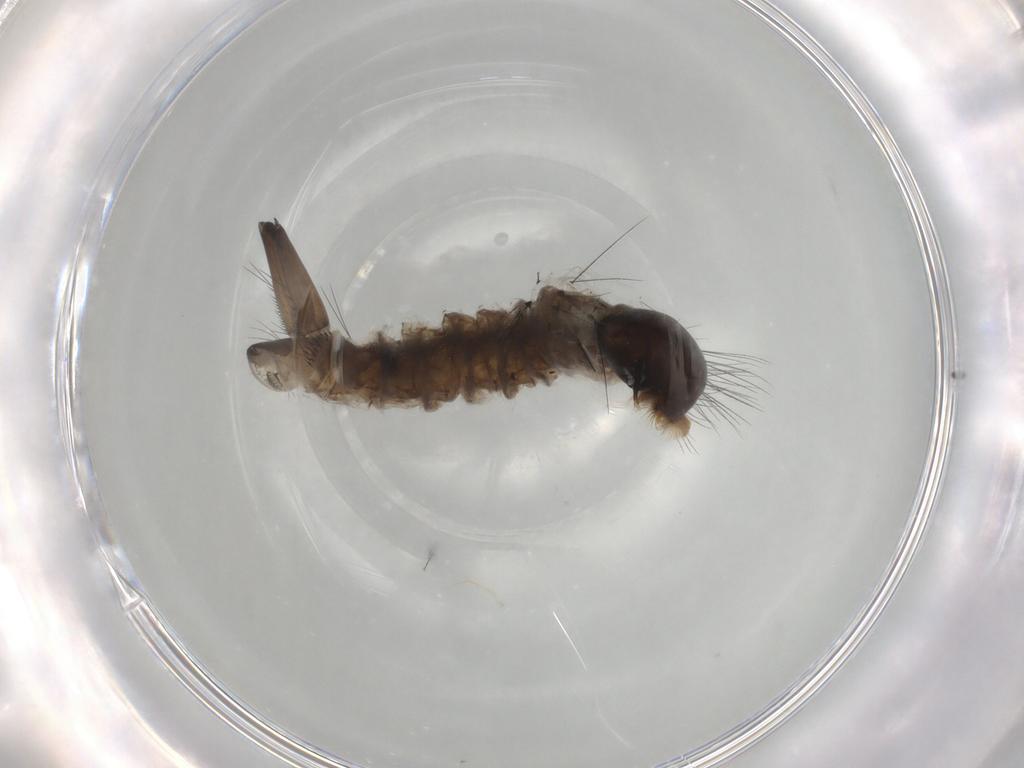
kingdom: Animalia
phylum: Arthropoda
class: Insecta
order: Diptera
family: Culicidae
